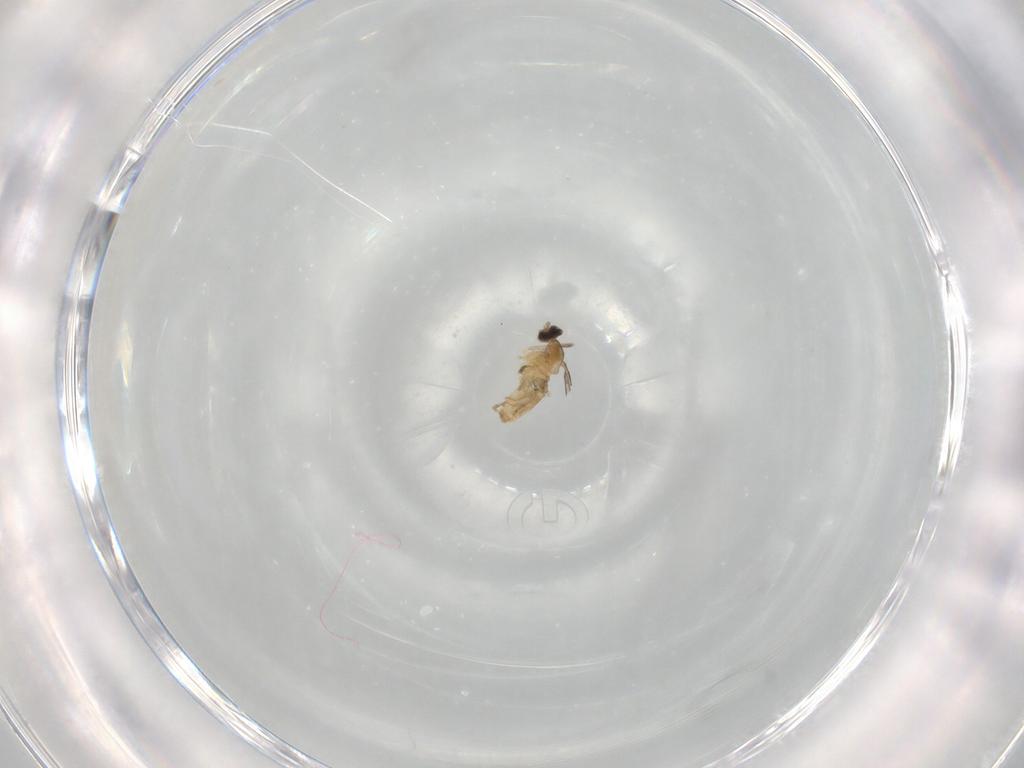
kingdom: Animalia
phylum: Arthropoda
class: Insecta
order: Diptera
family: Cecidomyiidae
